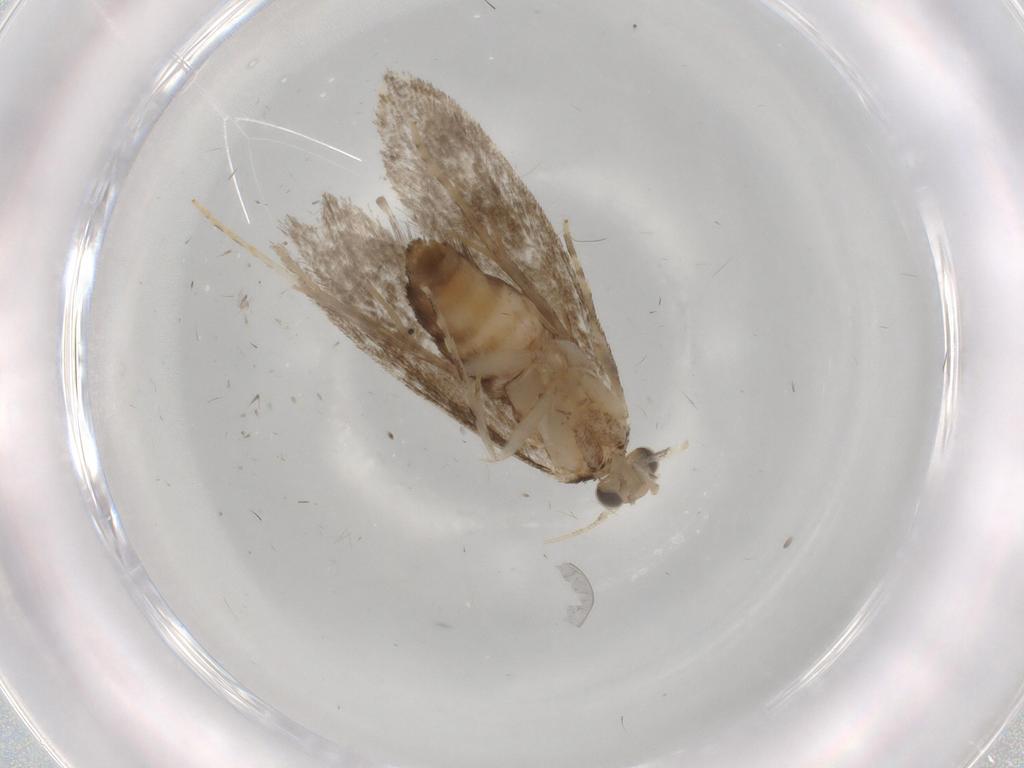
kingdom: Animalia
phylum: Arthropoda
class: Insecta
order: Lepidoptera
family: Tineidae
